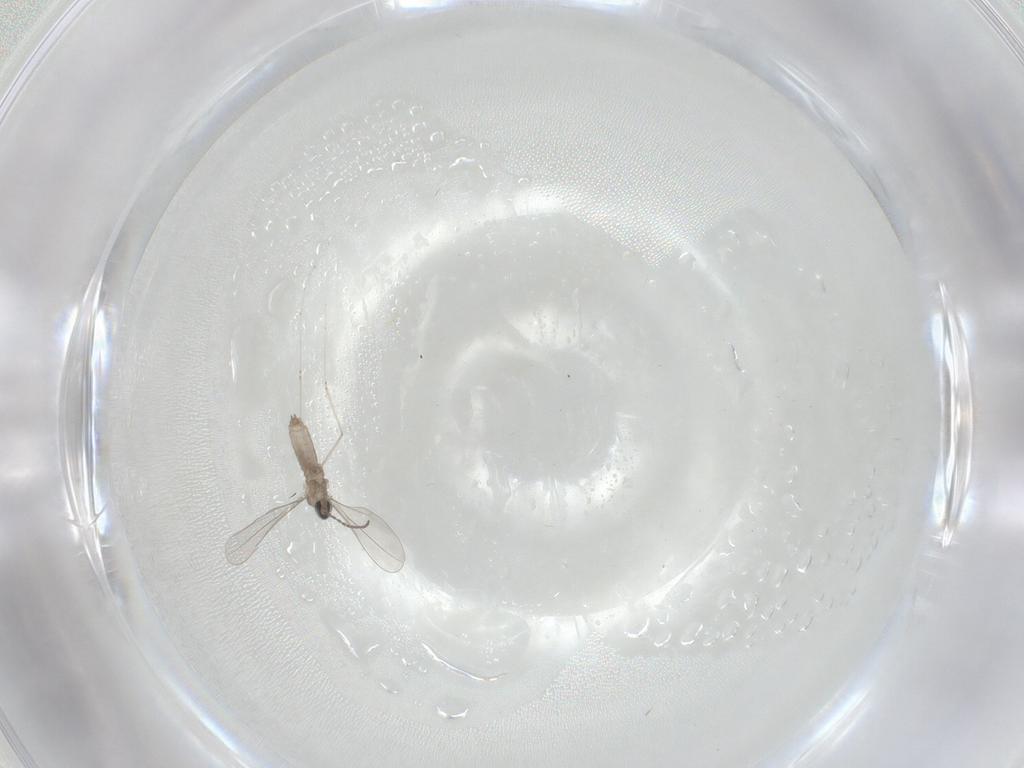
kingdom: Animalia
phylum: Arthropoda
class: Insecta
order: Diptera
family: Cecidomyiidae
